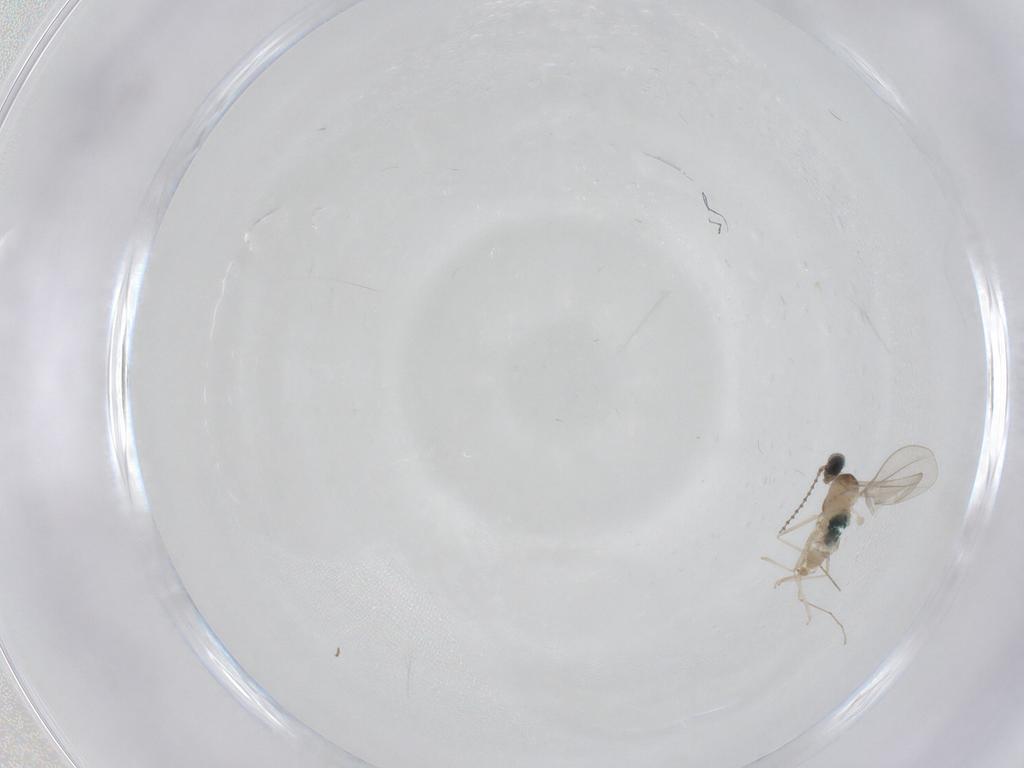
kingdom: Animalia
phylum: Arthropoda
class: Insecta
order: Diptera
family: Cecidomyiidae
